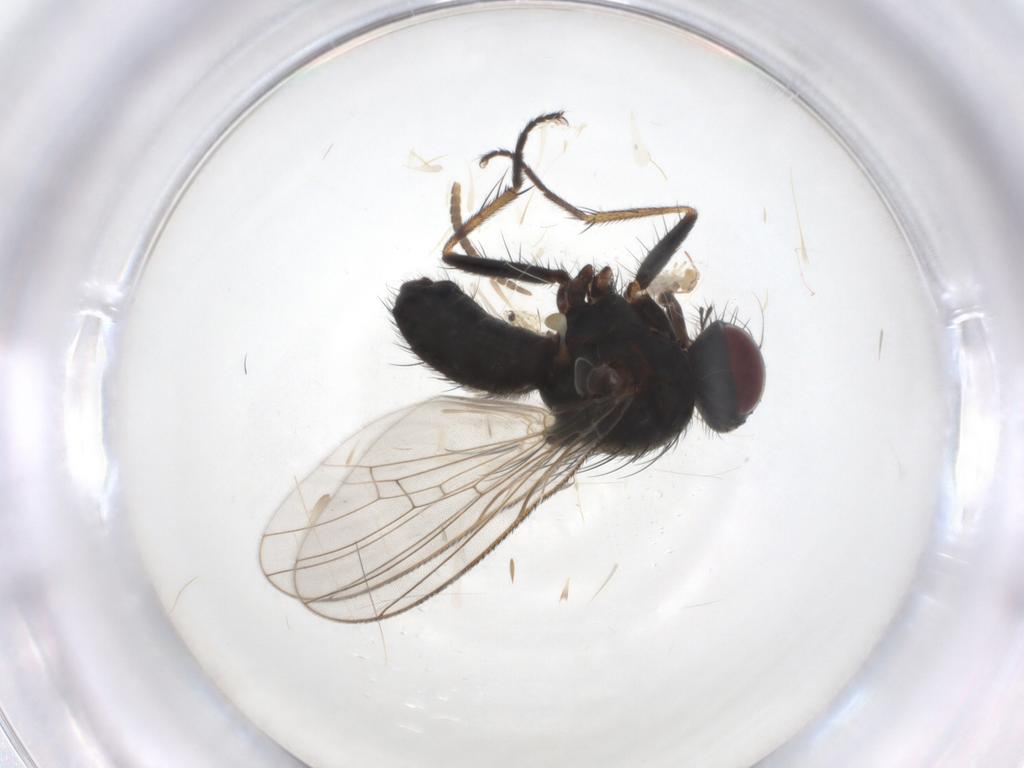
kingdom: Animalia
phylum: Arthropoda
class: Insecta
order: Diptera
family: Mycetophilidae
